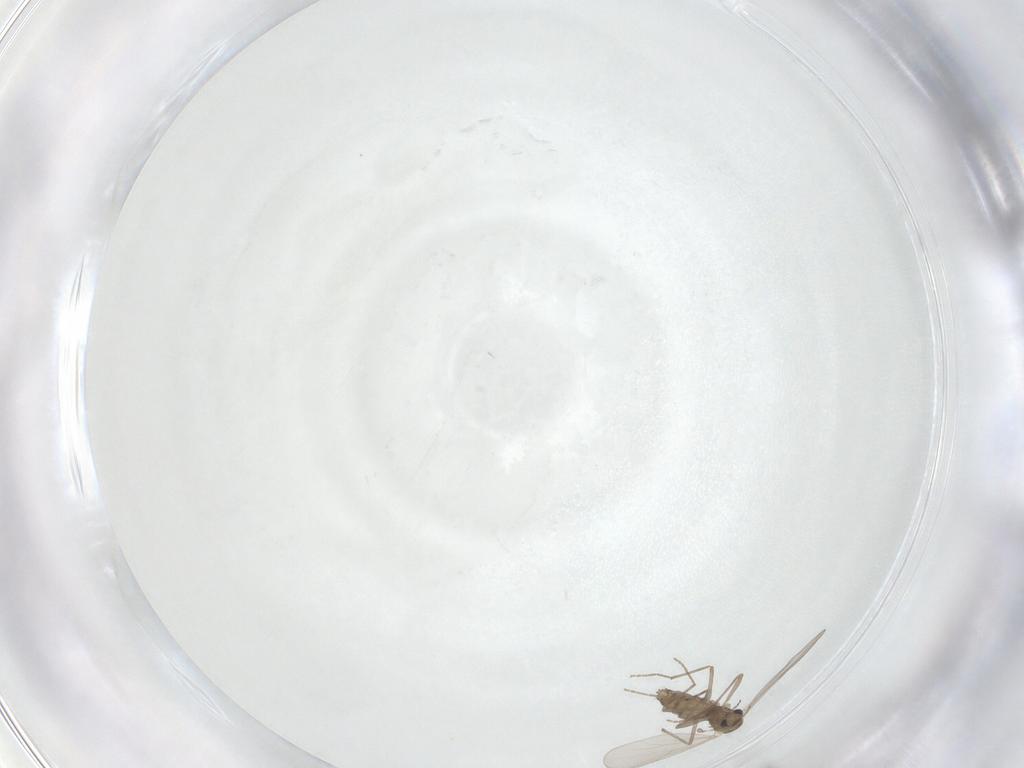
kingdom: Animalia
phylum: Arthropoda
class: Insecta
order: Diptera
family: Chironomidae
